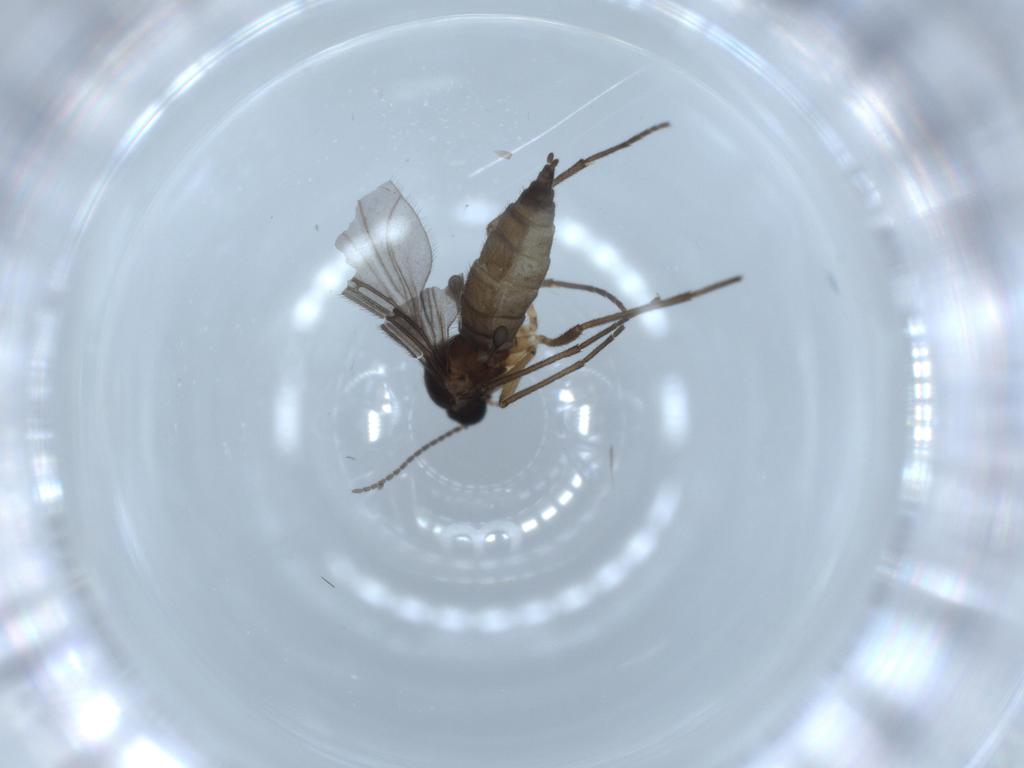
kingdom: Animalia
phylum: Arthropoda
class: Insecta
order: Diptera
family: Sciaridae
